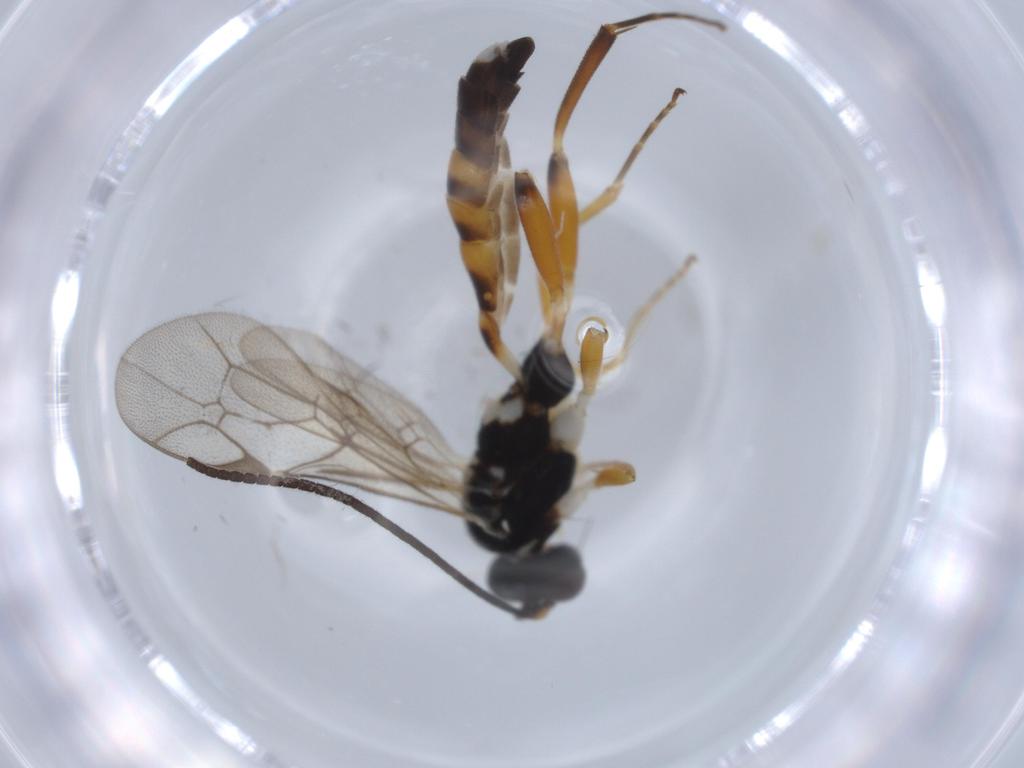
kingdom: Animalia
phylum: Arthropoda
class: Insecta
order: Hymenoptera
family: Ichneumonidae
